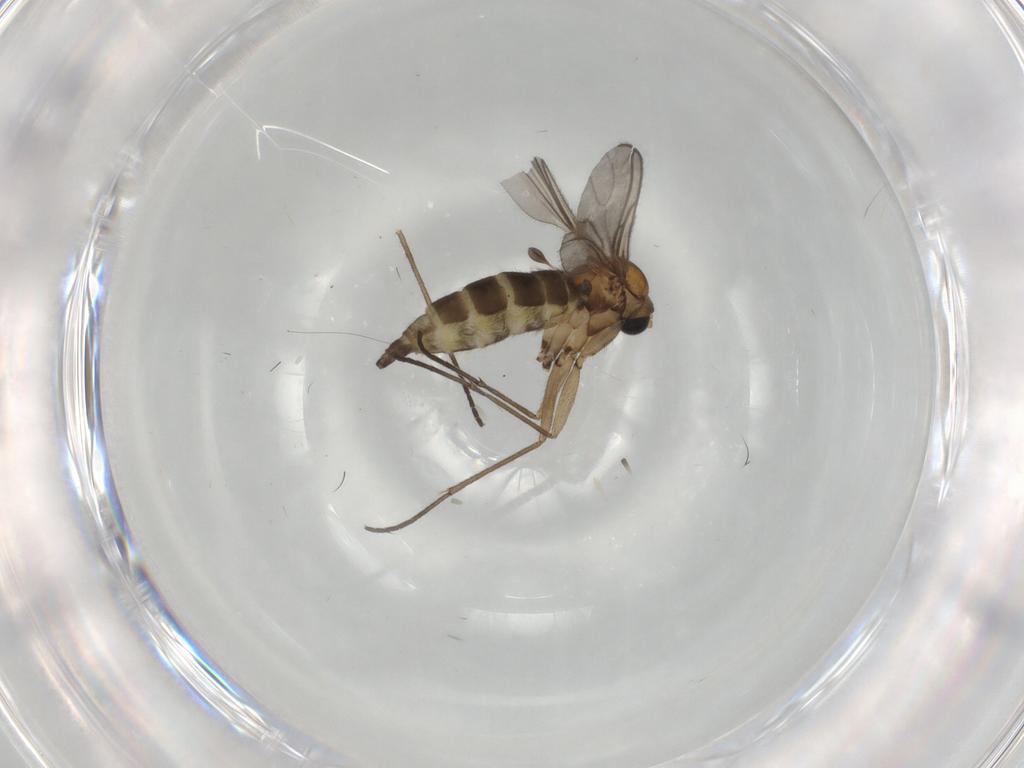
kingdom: Animalia
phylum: Arthropoda
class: Insecta
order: Diptera
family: Sciaridae
